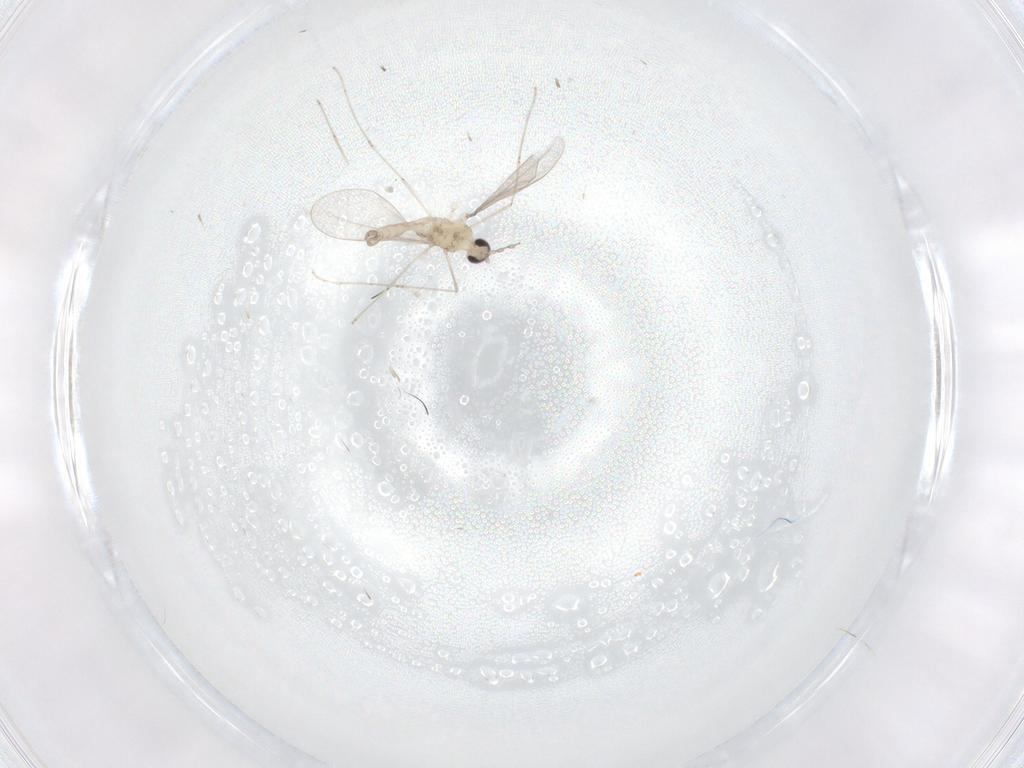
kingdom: Animalia
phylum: Arthropoda
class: Insecta
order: Diptera
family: Cecidomyiidae
